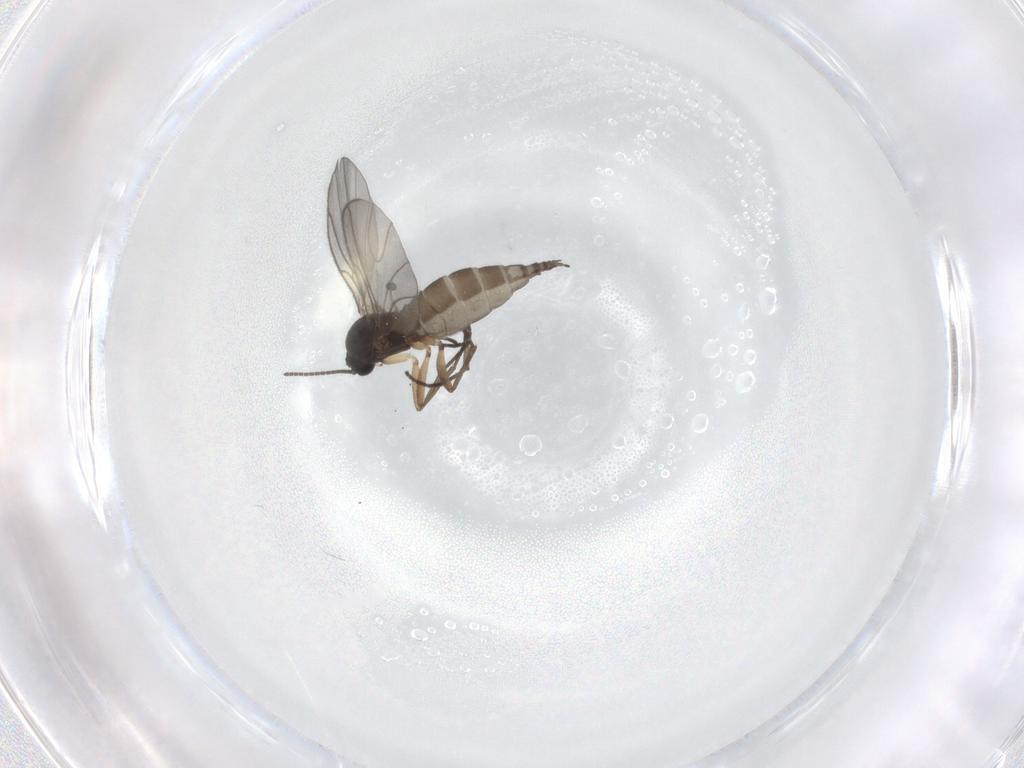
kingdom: Animalia
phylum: Arthropoda
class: Insecta
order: Diptera
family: Sciaridae
